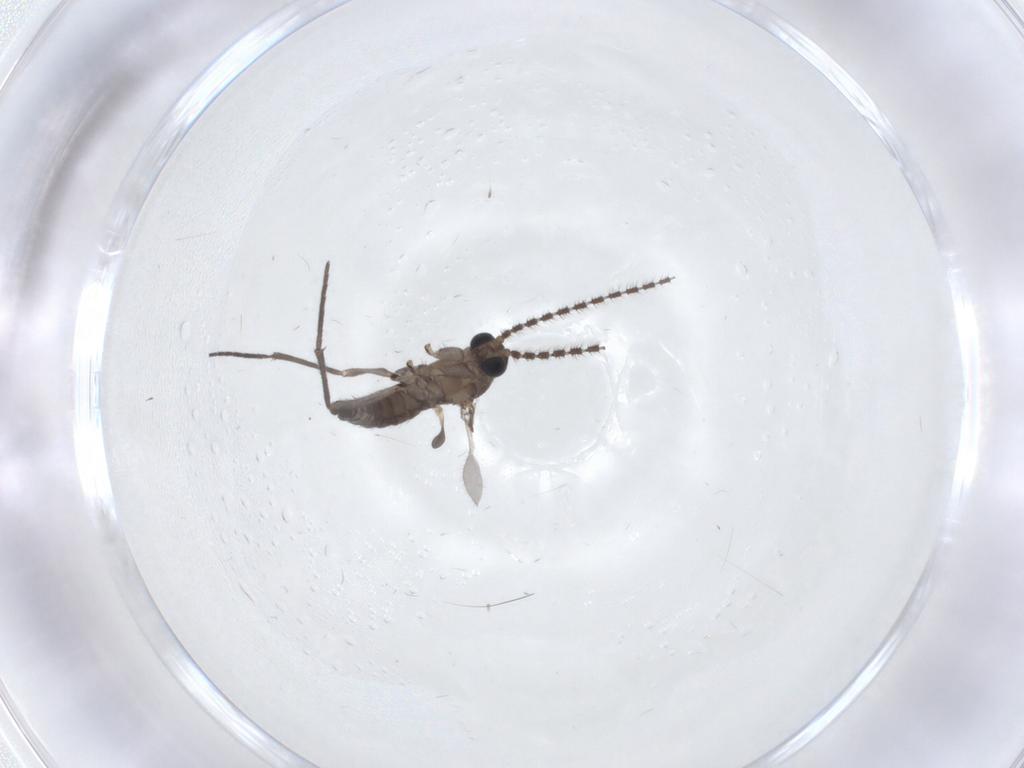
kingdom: Animalia
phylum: Arthropoda
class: Insecta
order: Diptera
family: Sciaridae
